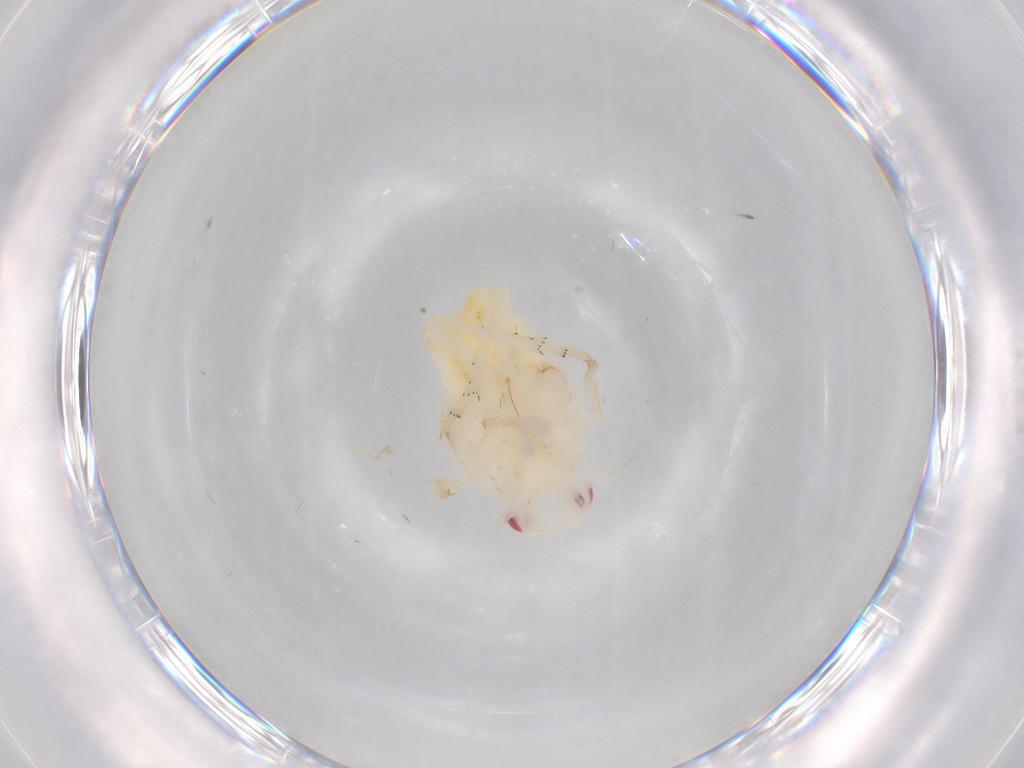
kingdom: Animalia
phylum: Arthropoda
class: Insecta
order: Hemiptera
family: Flatidae
